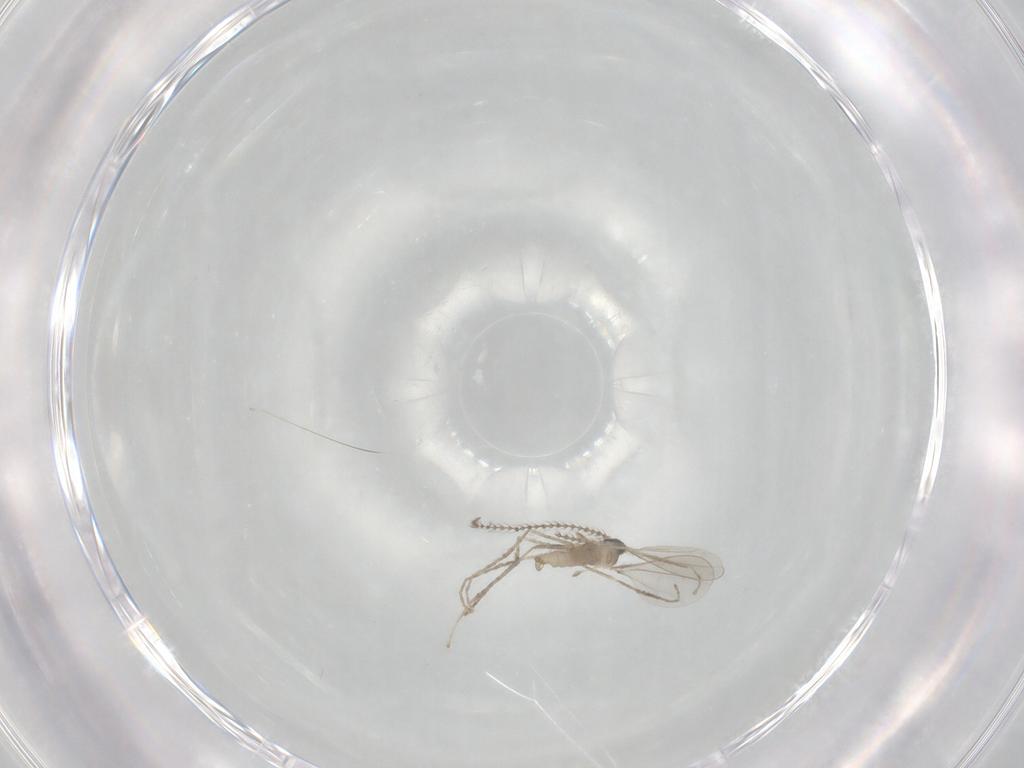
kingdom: Animalia
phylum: Arthropoda
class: Insecta
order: Diptera
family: Cecidomyiidae
